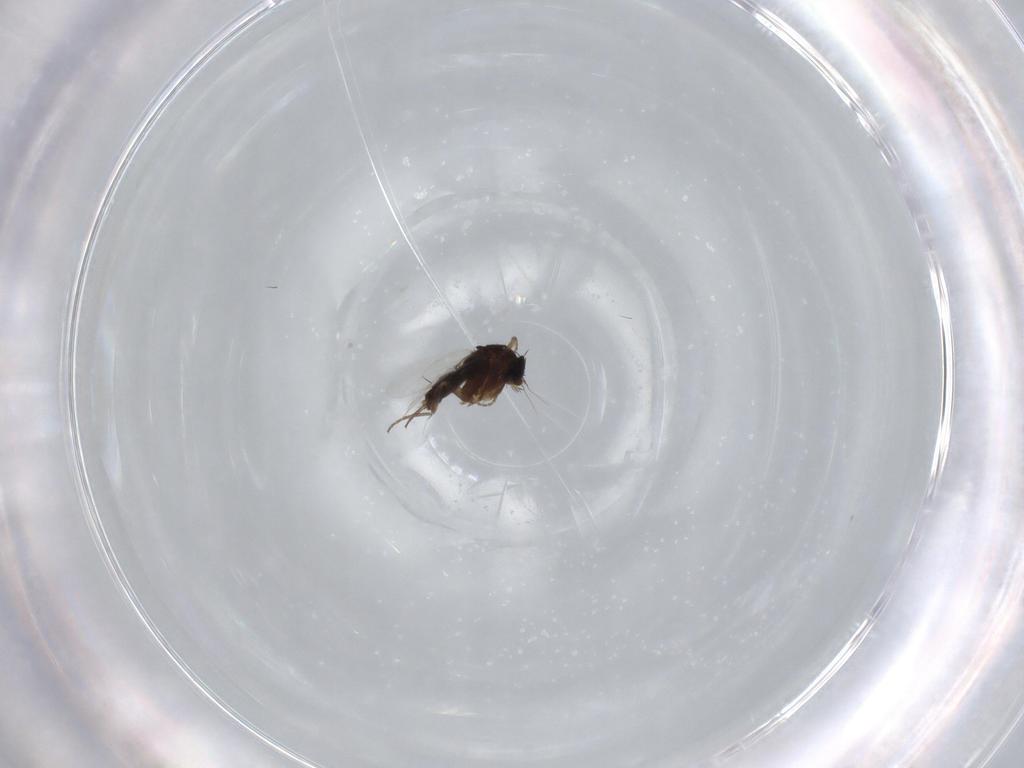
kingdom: Animalia
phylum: Arthropoda
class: Insecta
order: Diptera
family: Phoridae
